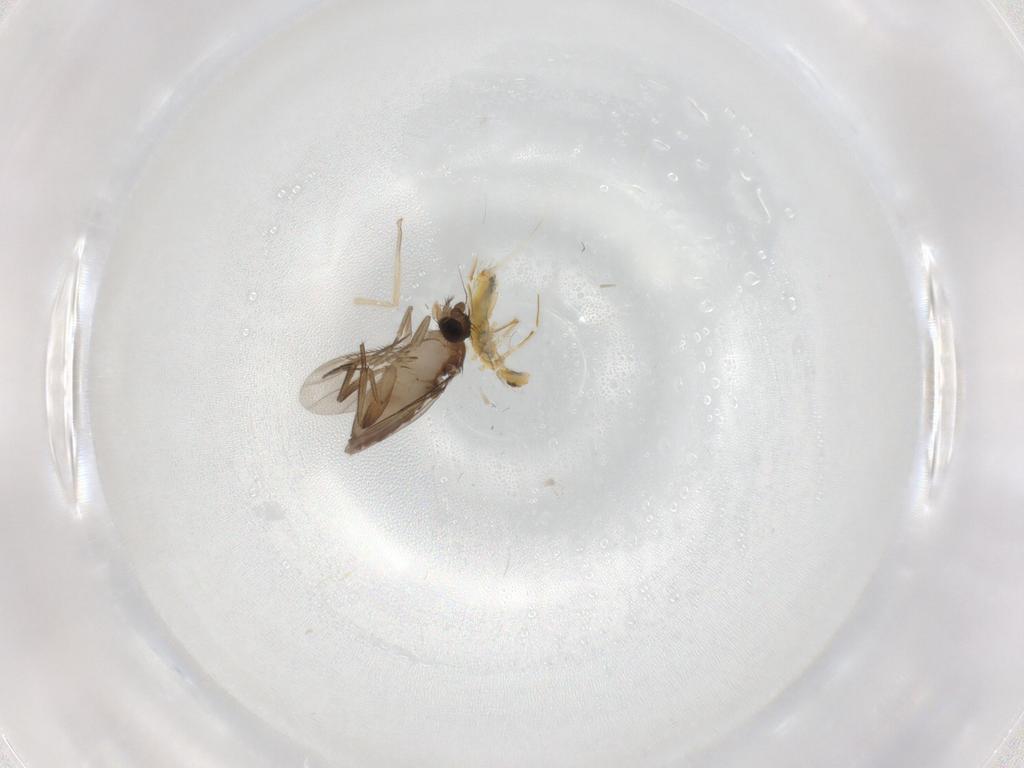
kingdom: Animalia
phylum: Arthropoda
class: Insecta
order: Diptera
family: Phoridae
